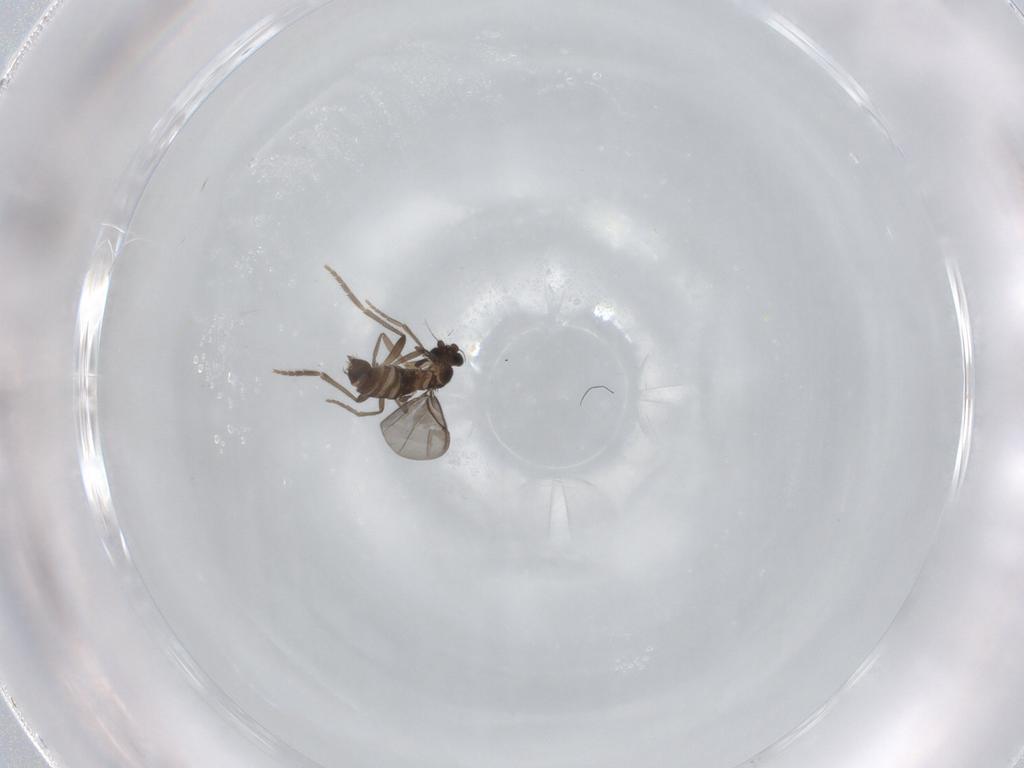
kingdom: Animalia
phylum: Arthropoda
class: Insecta
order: Diptera
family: Phoridae
